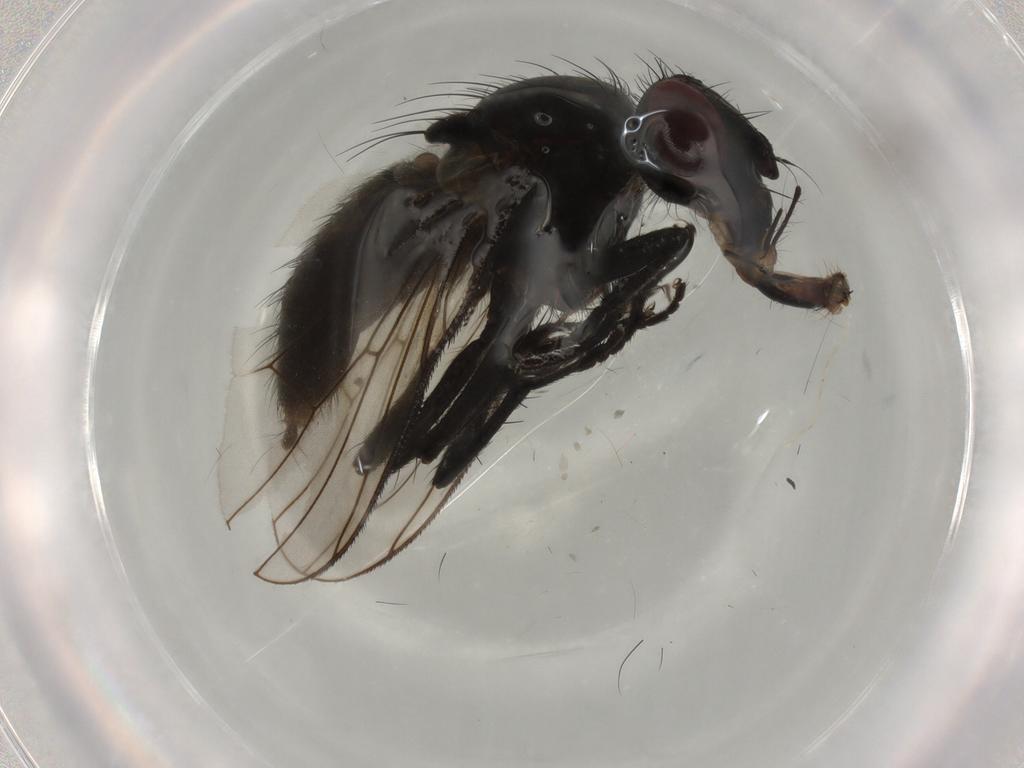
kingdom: Animalia
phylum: Arthropoda
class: Insecta
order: Diptera
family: Muscidae
